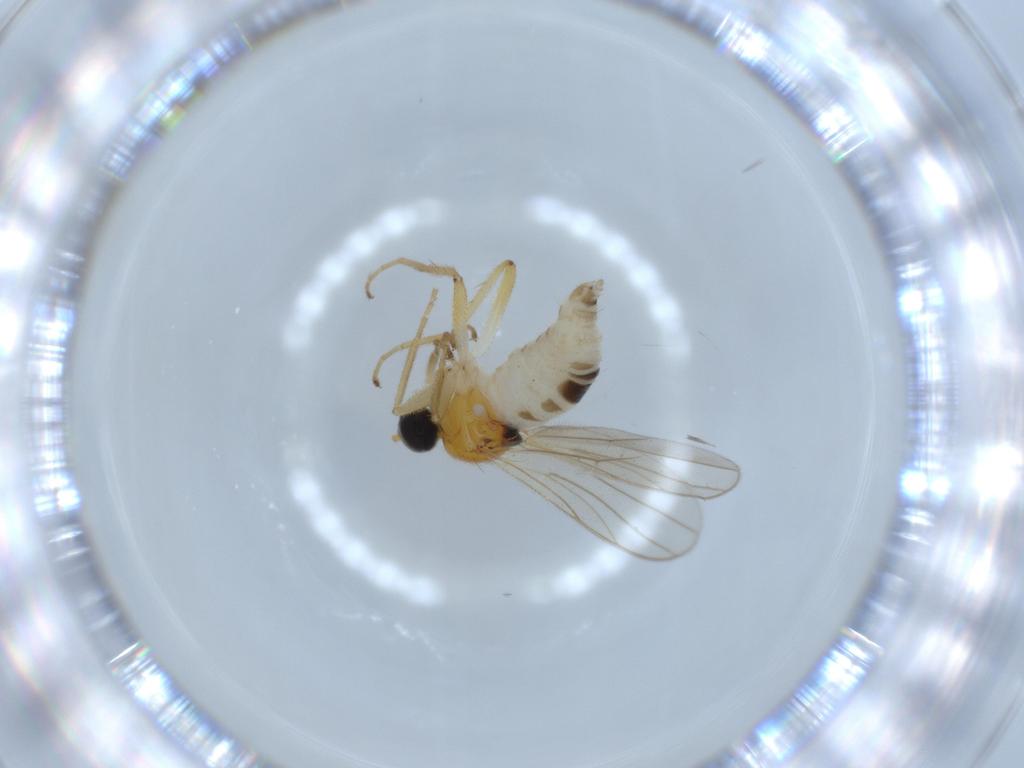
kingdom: Animalia
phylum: Arthropoda
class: Insecta
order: Diptera
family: Hybotidae
